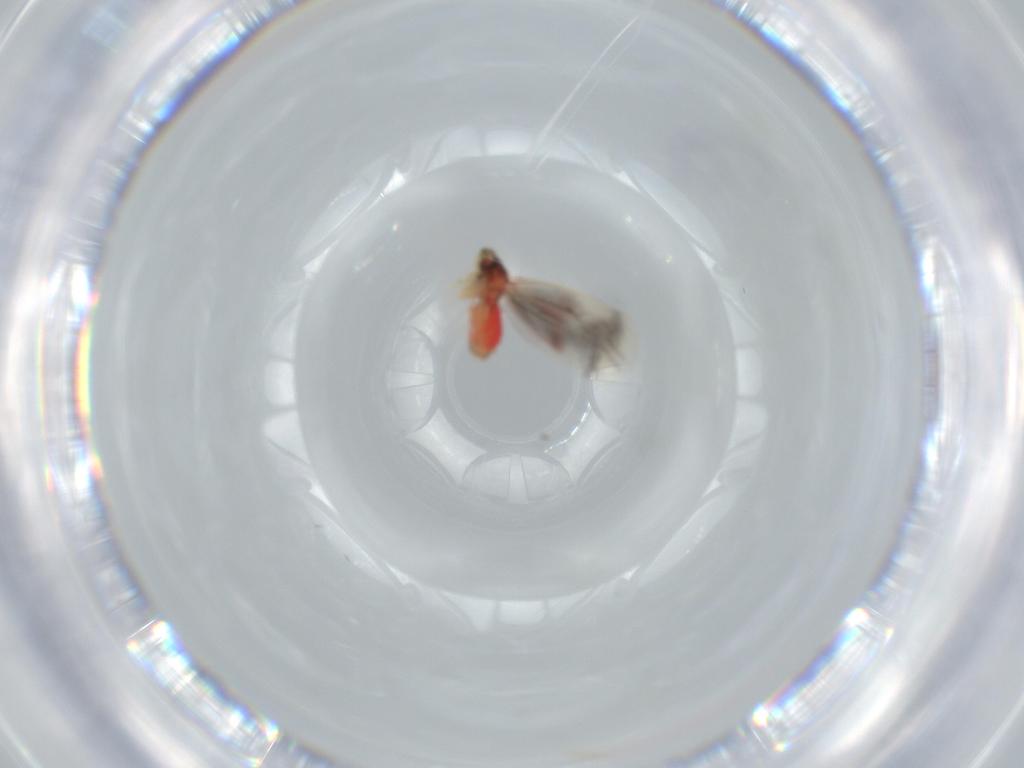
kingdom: Animalia
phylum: Arthropoda
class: Insecta
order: Hemiptera
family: Aleyrodidae
